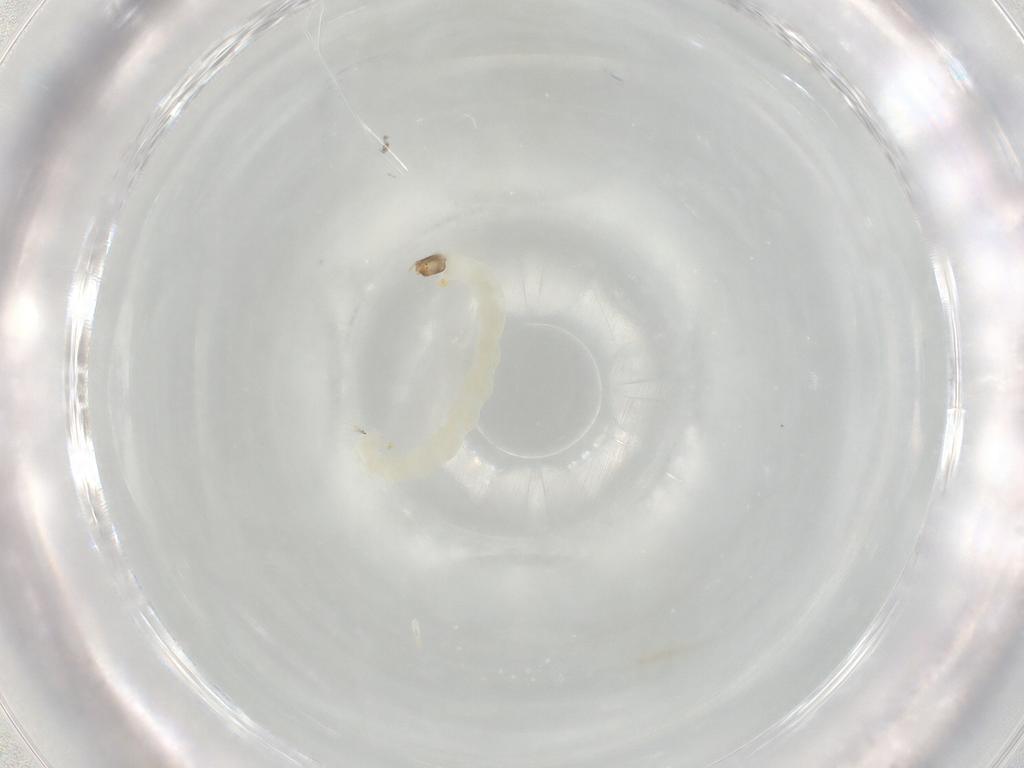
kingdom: Animalia
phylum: Arthropoda
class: Insecta
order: Diptera
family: Chironomidae
